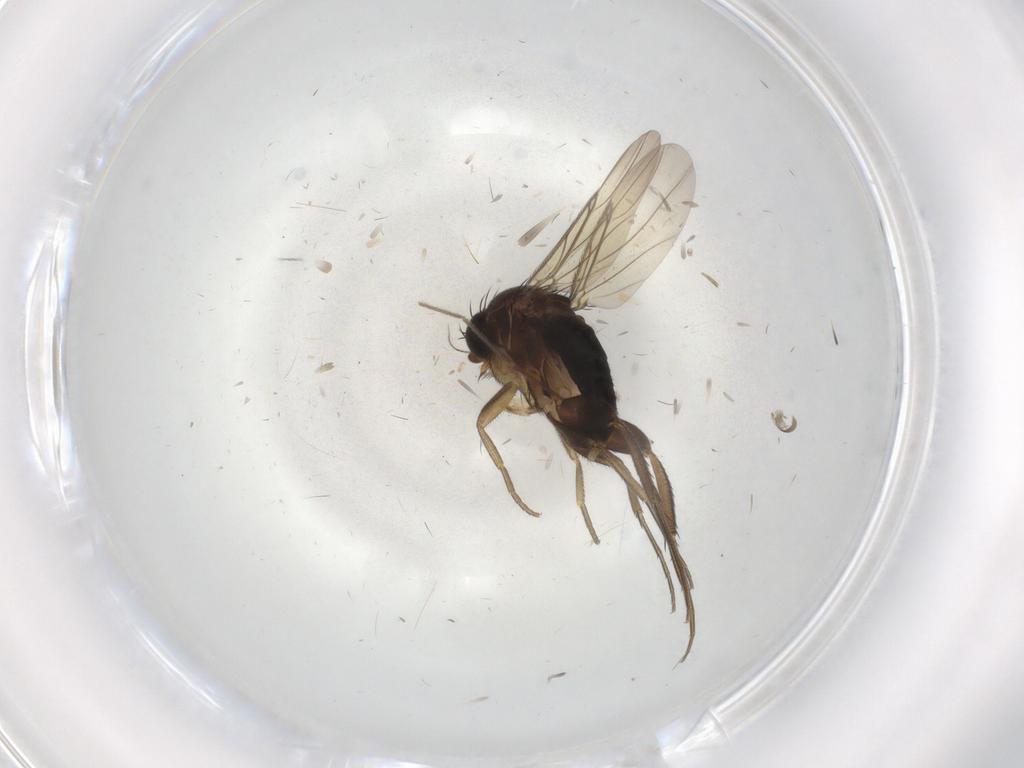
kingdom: Animalia
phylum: Arthropoda
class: Insecta
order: Diptera
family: Phoridae
